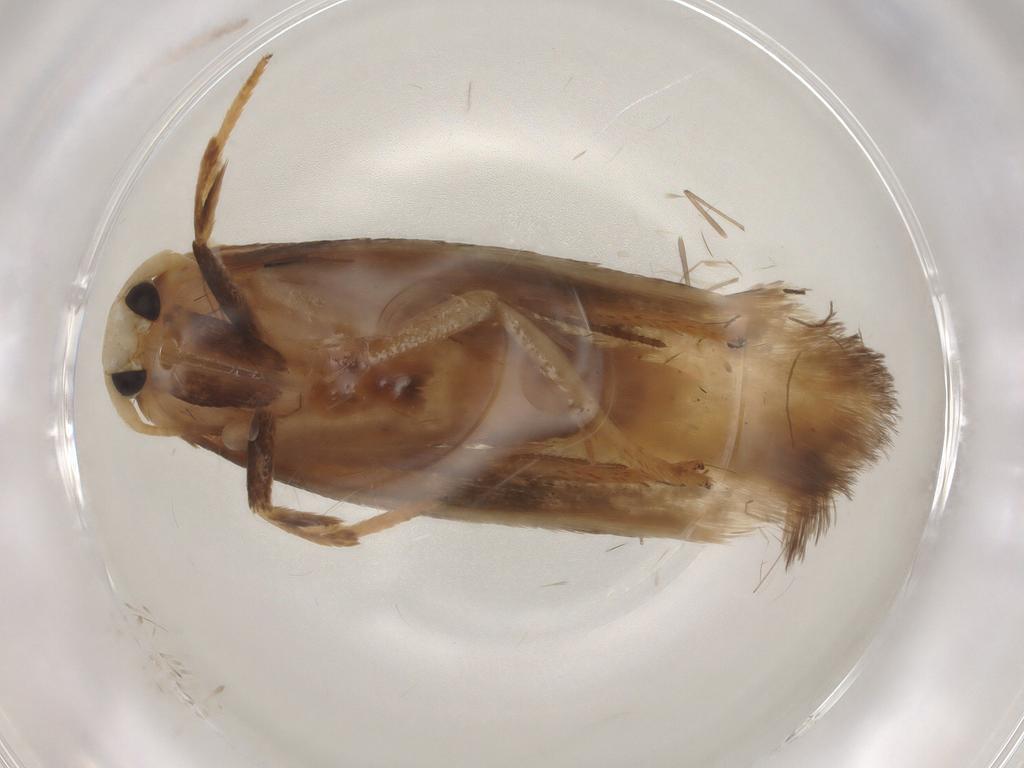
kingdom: Animalia
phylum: Arthropoda
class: Insecta
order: Lepidoptera
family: Geometridae
